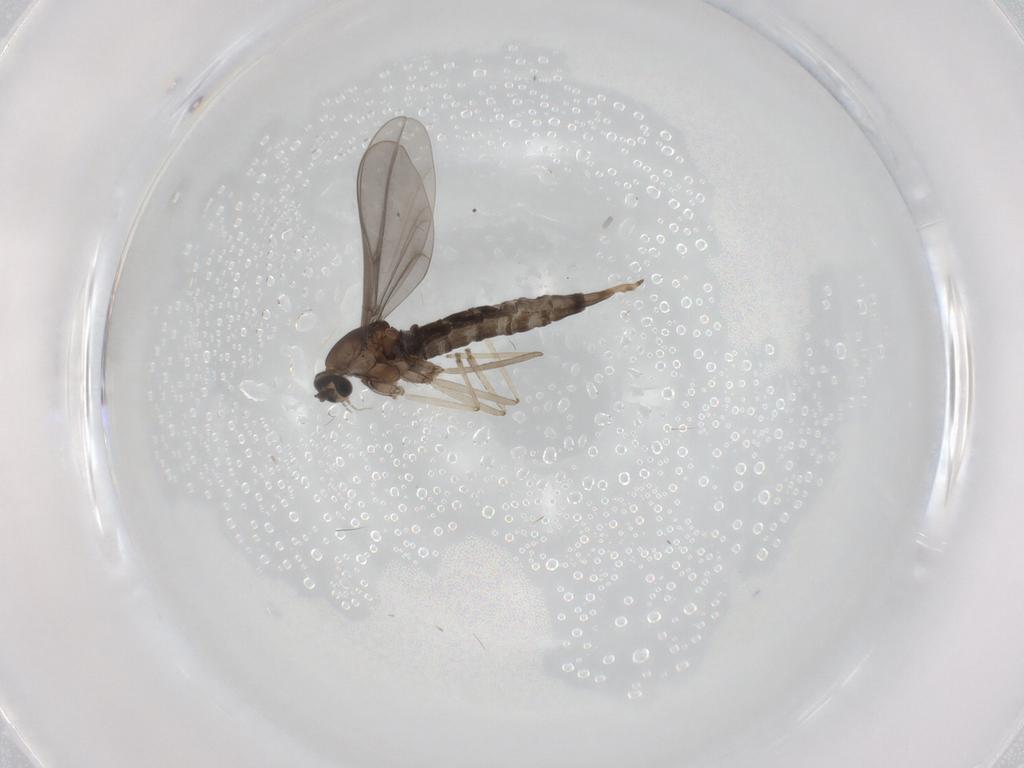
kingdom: Animalia
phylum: Arthropoda
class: Insecta
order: Diptera
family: Cecidomyiidae
